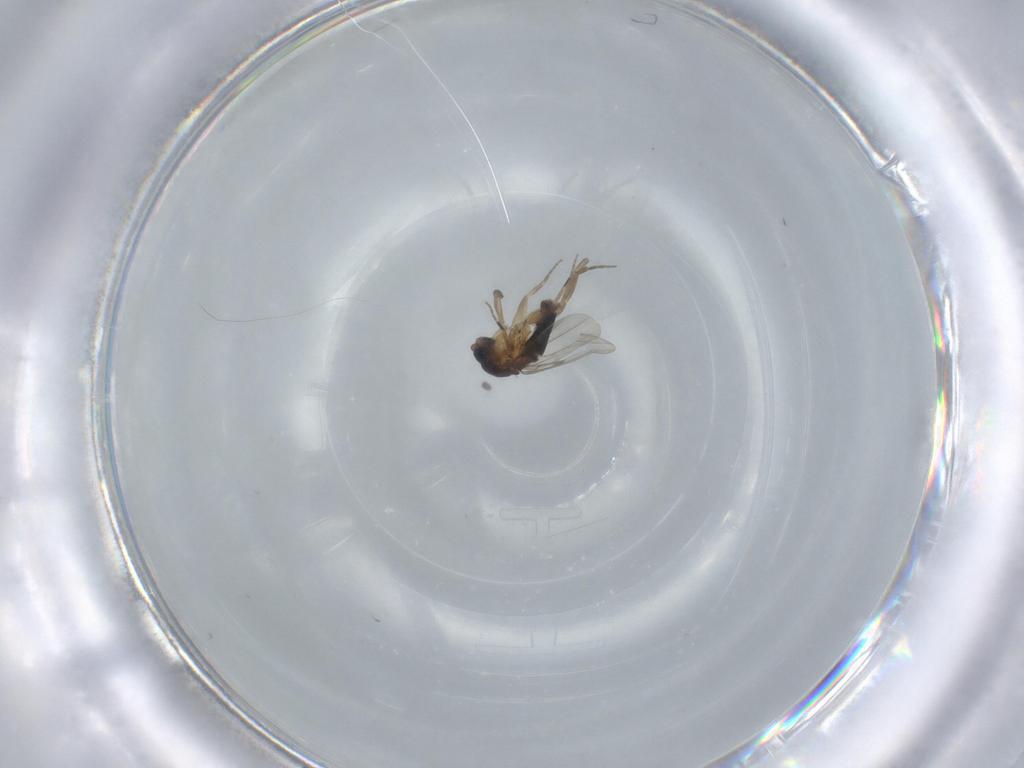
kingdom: Animalia
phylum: Arthropoda
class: Insecta
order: Diptera
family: Phoridae
